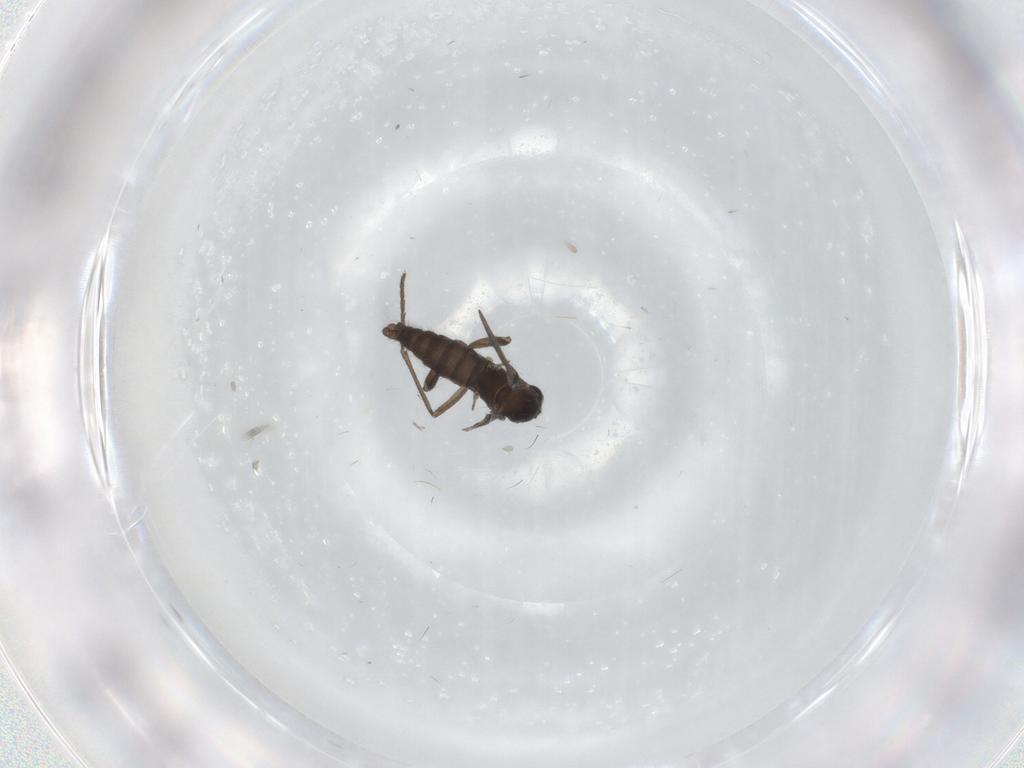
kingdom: Animalia
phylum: Arthropoda
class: Insecta
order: Diptera
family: Sciaridae
